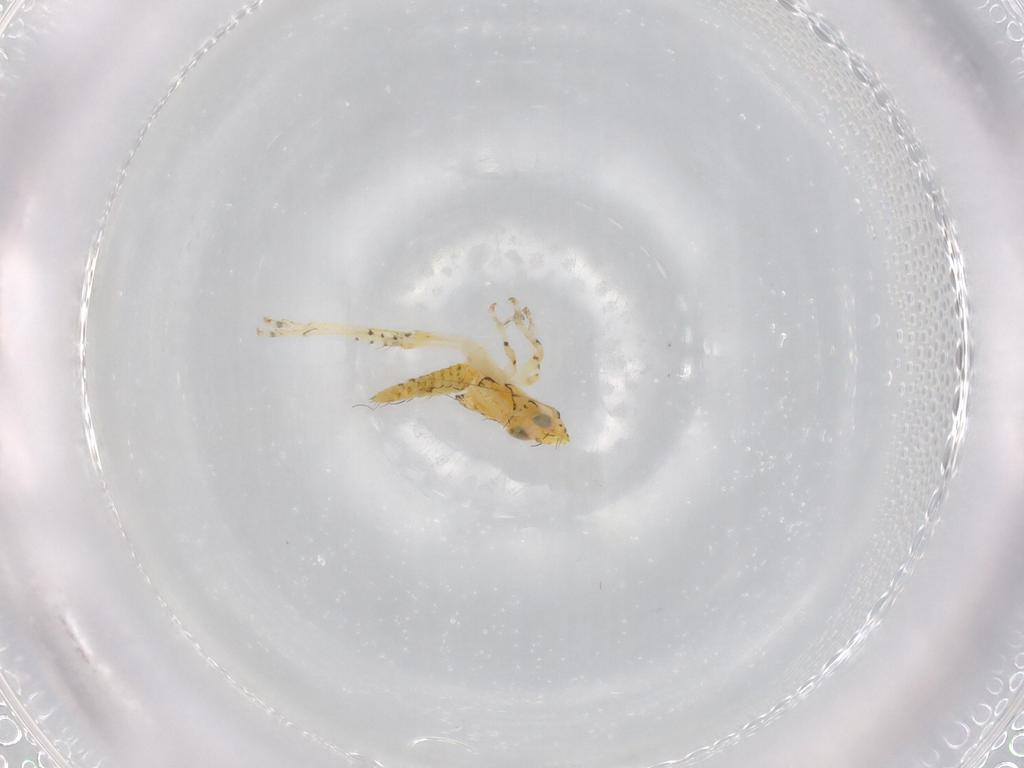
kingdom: Animalia
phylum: Arthropoda
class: Insecta
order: Hemiptera
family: Cicadellidae
